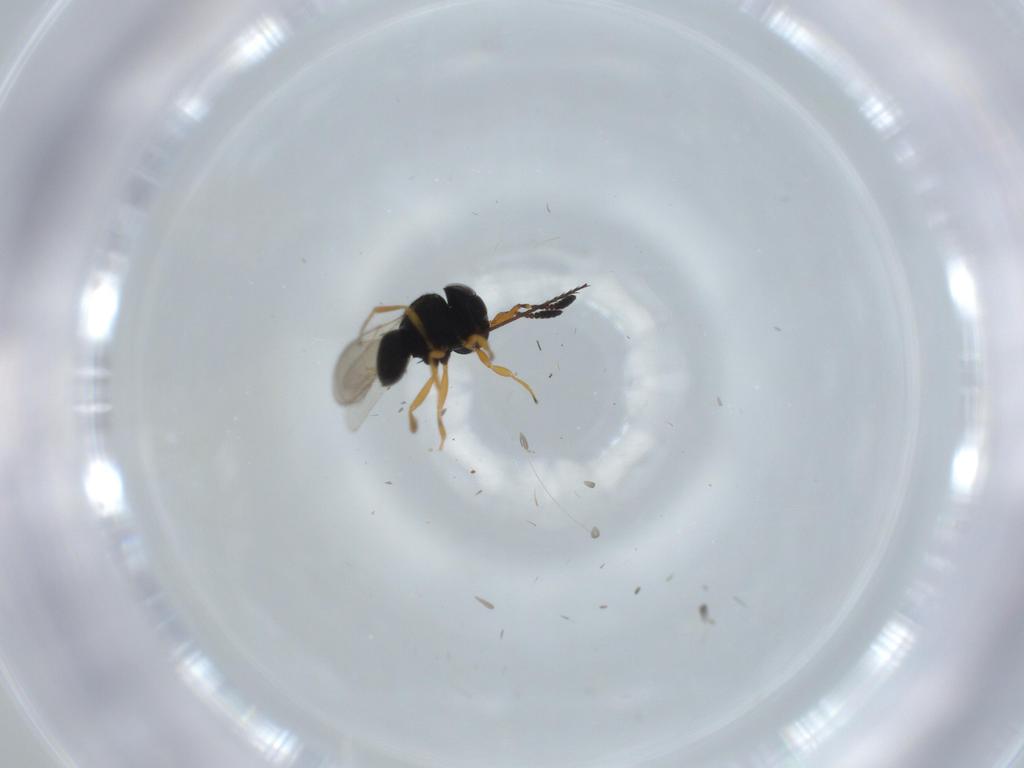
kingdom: Animalia
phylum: Arthropoda
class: Insecta
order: Hymenoptera
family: Scelionidae
